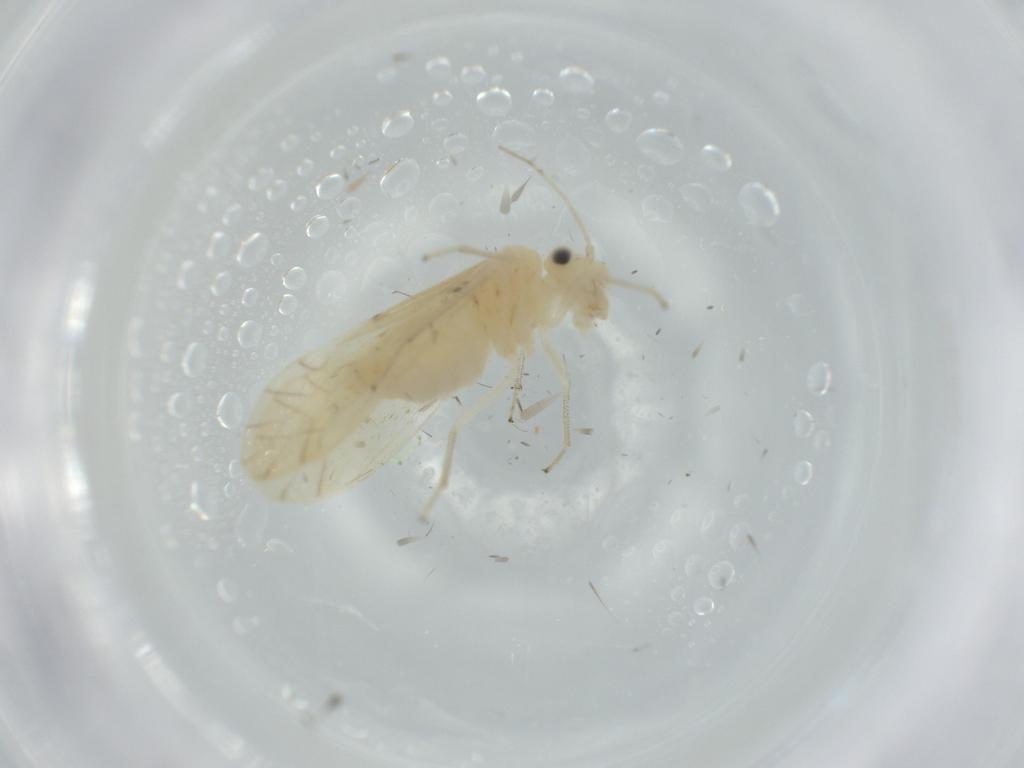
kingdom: Animalia
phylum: Arthropoda
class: Insecta
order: Psocodea
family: Caeciliusidae
